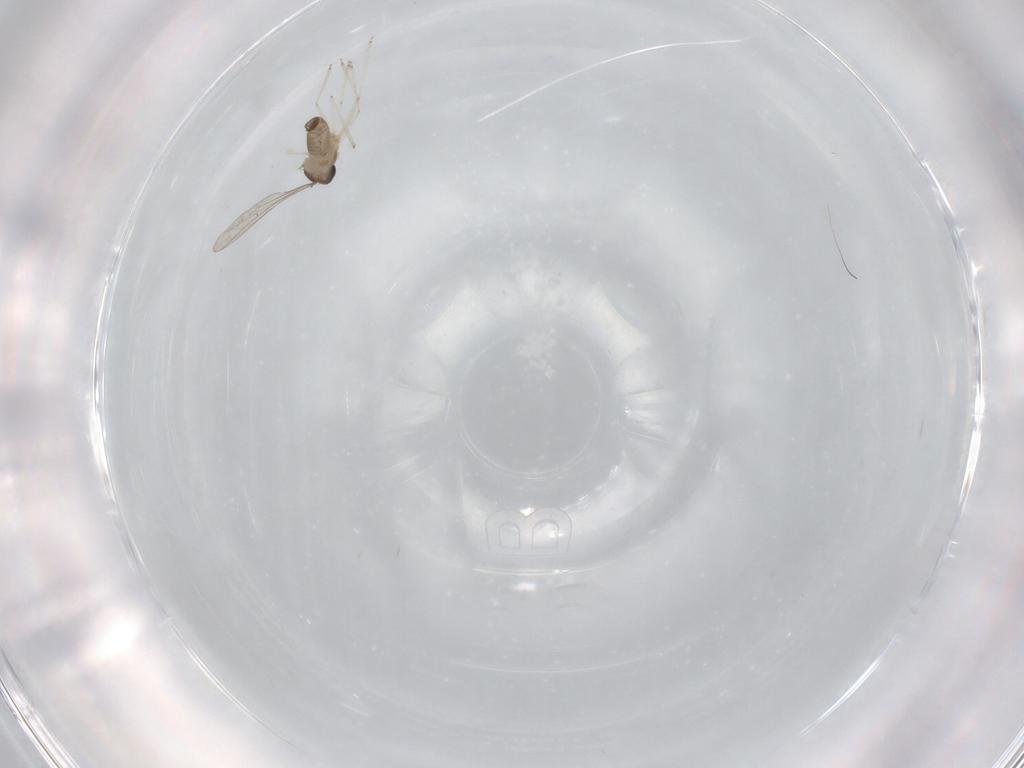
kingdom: Animalia
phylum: Arthropoda
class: Insecta
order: Diptera
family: Cecidomyiidae
